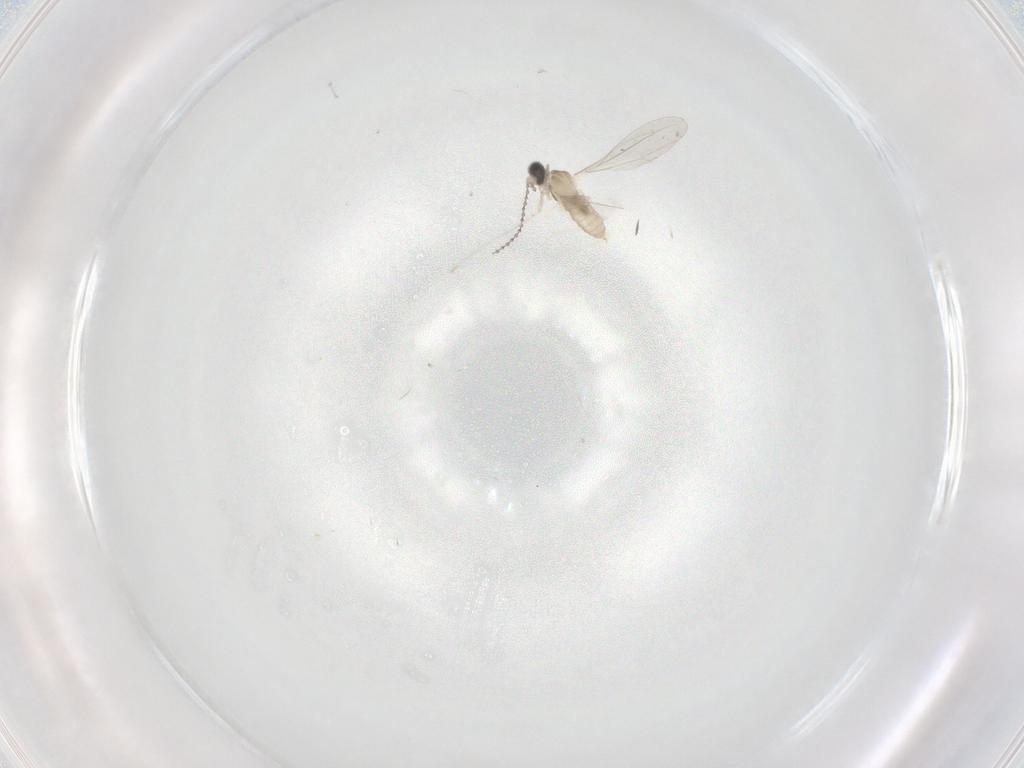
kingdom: Animalia
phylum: Arthropoda
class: Insecta
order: Diptera
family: Cecidomyiidae
